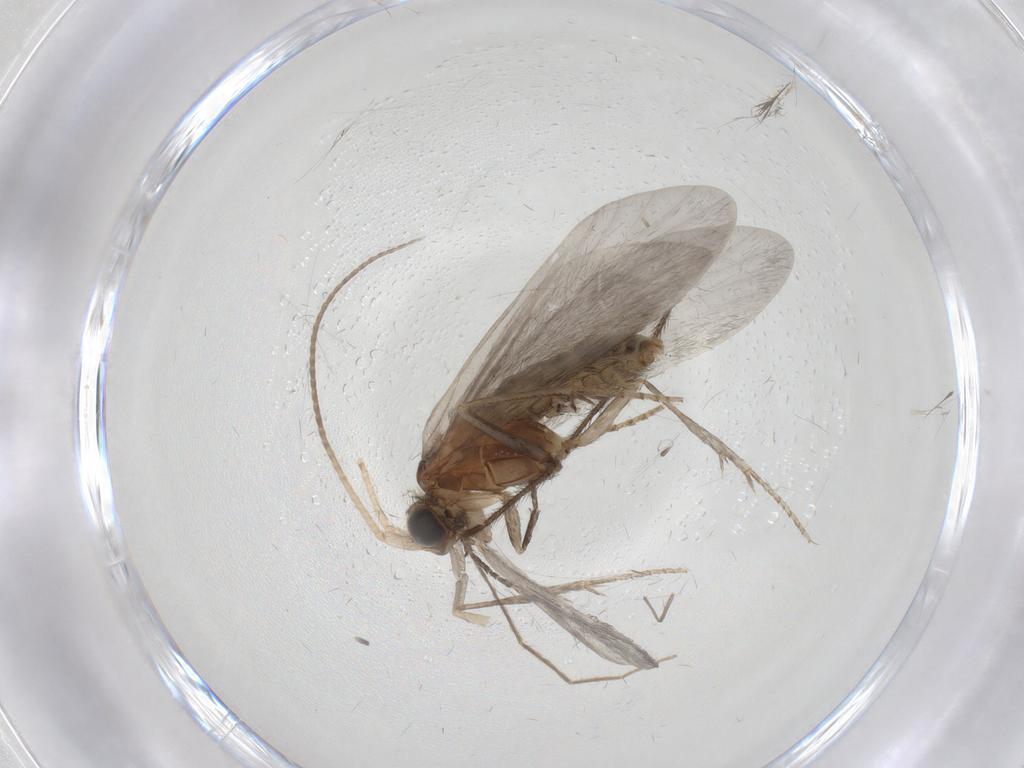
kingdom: Animalia
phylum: Arthropoda
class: Insecta
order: Trichoptera
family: Helicopsychidae
